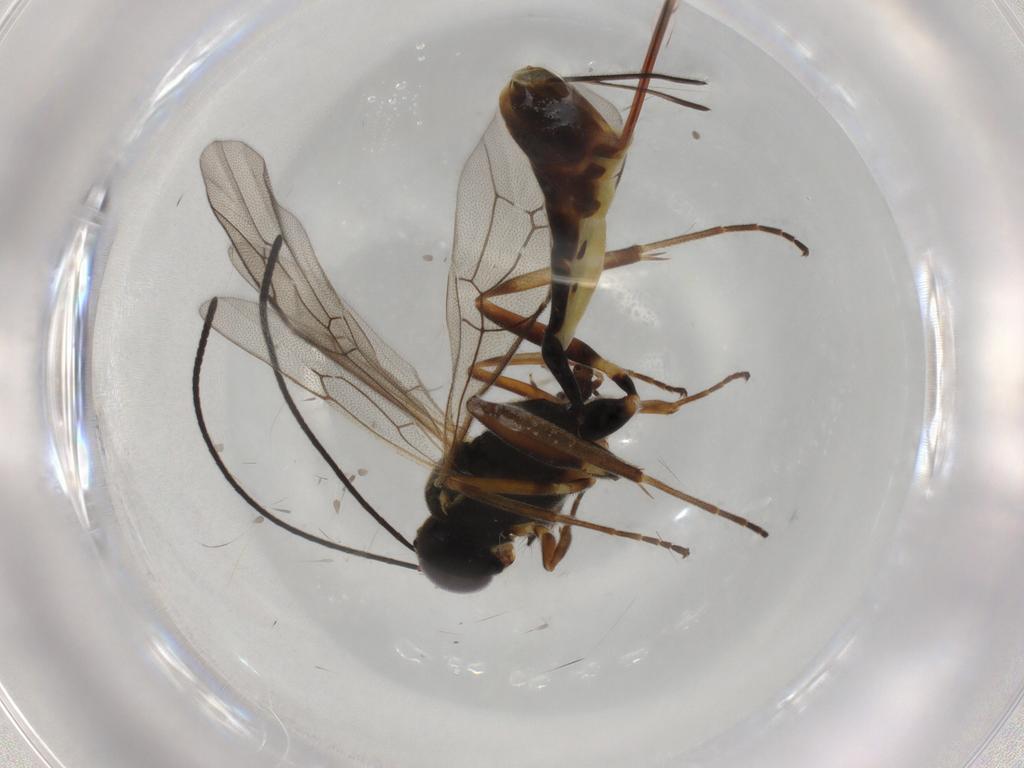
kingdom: Animalia
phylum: Arthropoda
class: Insecta
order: Hymenoptera
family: Ichneumonidae
